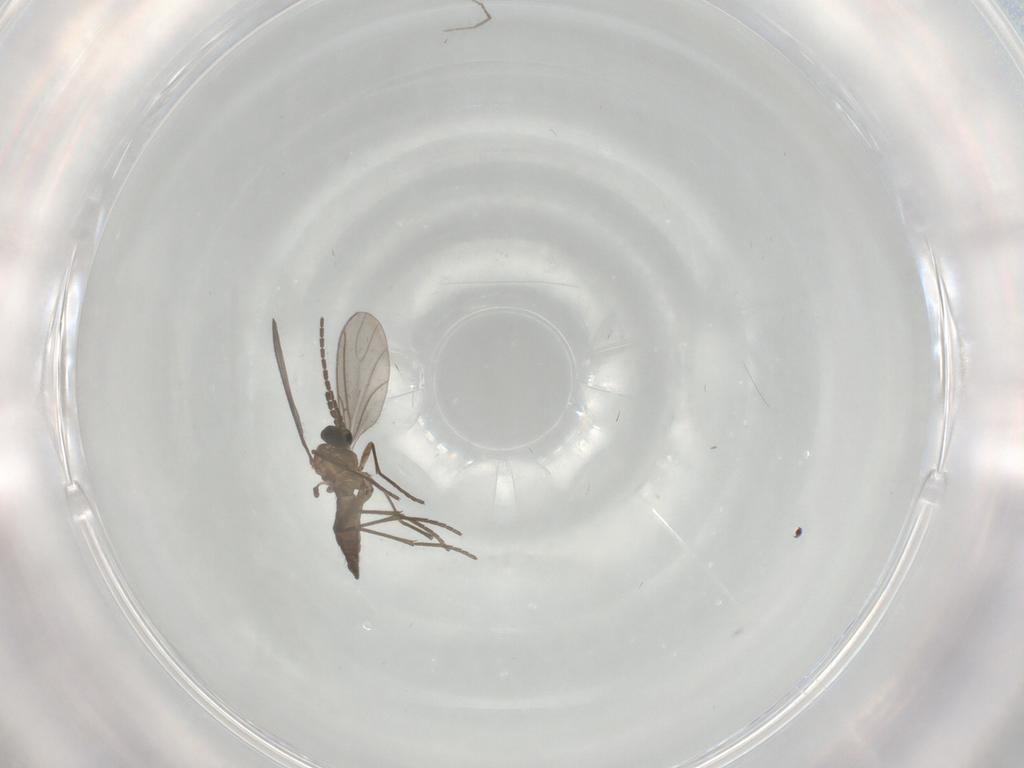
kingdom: Animalia
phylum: Arthropoda
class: Insecta
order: Diptera
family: Sciaridae
